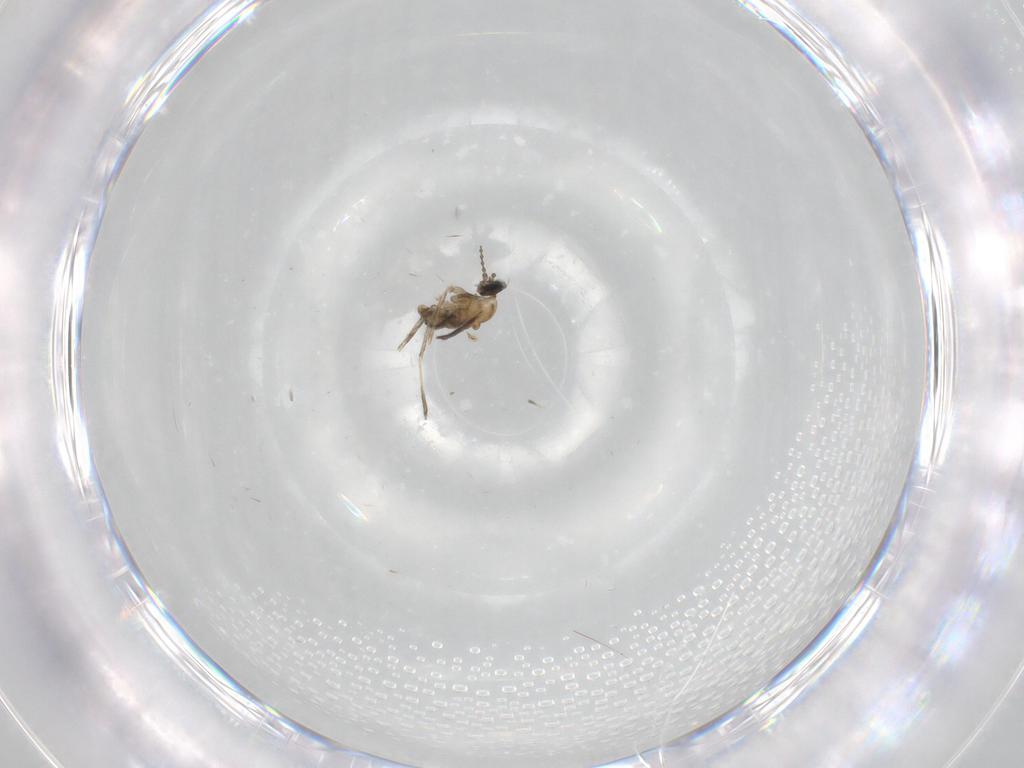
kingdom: Animalia
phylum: Arthropoda
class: Insecta
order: Diptera
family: Cecidomyiidae
